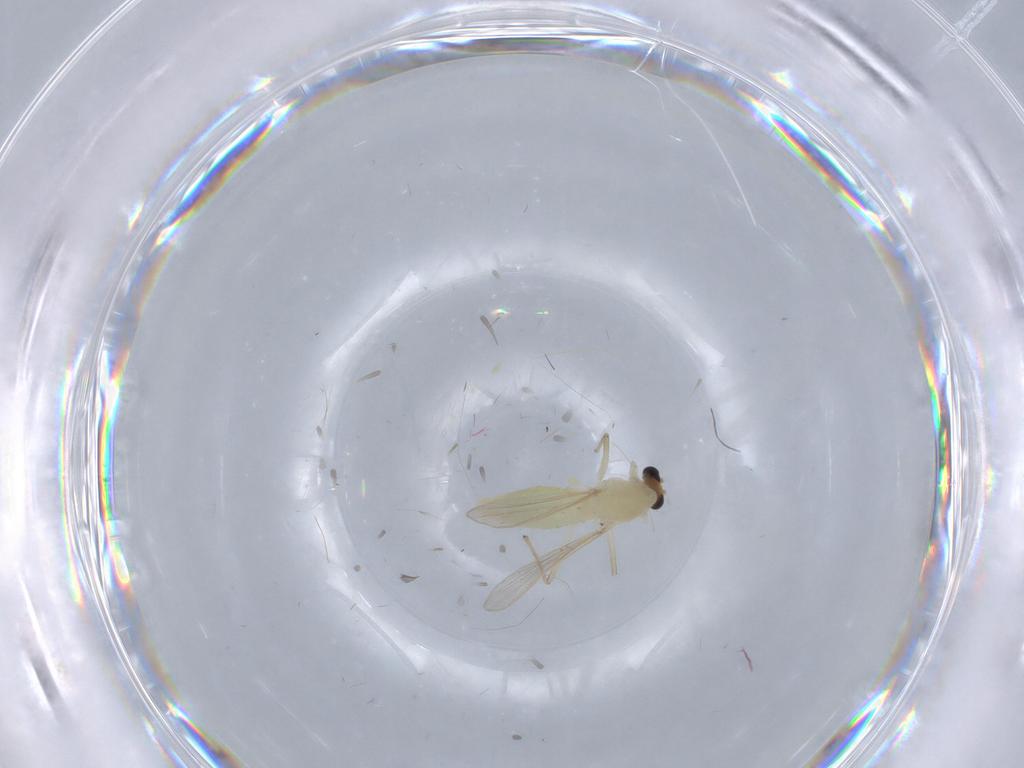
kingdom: Animalia
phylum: Arthropoda
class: Insecta
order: Diptera
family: Chironomidae
